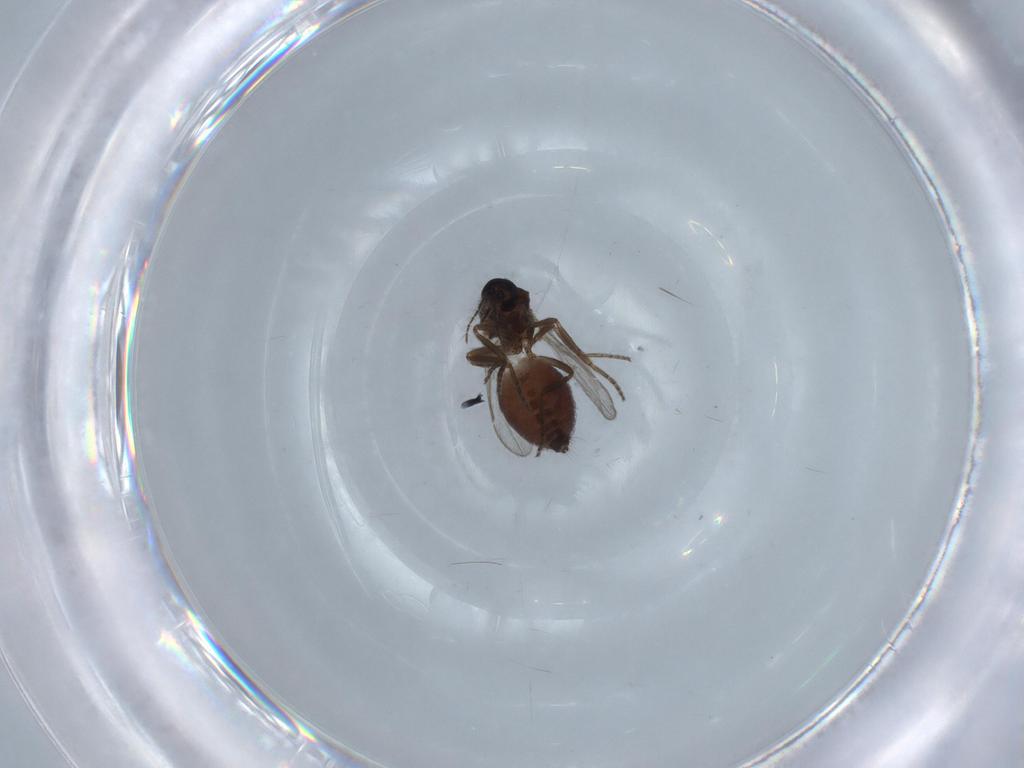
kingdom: Animalia
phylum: Arthropoda
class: Insecta
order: Diptera
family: Ceratopogonidae
